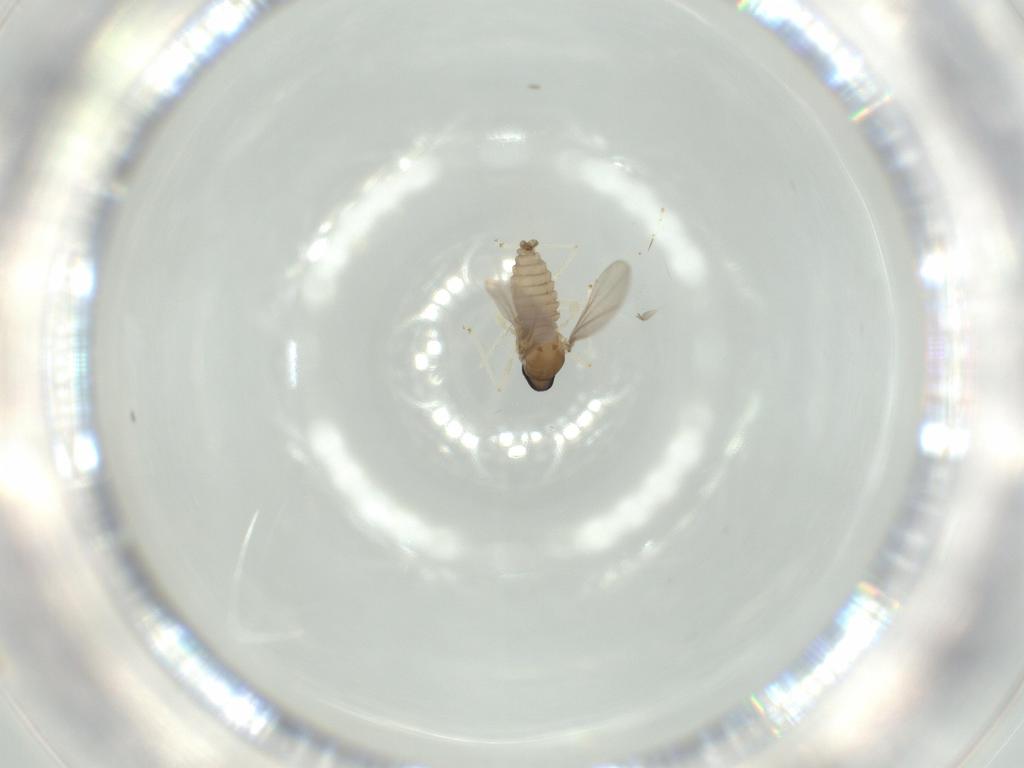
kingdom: Animalia
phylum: Arthropoda
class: Insecta
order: Diptera
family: Cecidomyiidae
